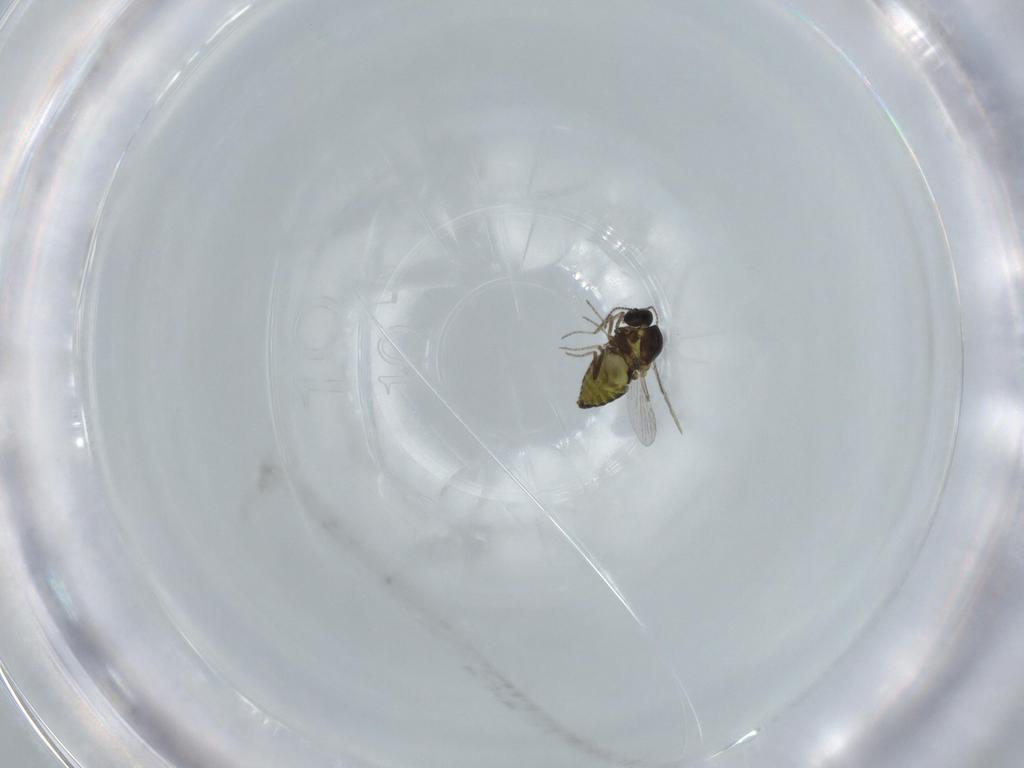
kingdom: Animalia
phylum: Arthropoda
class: Insecta
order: Diptera
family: Ceratopogonidae
